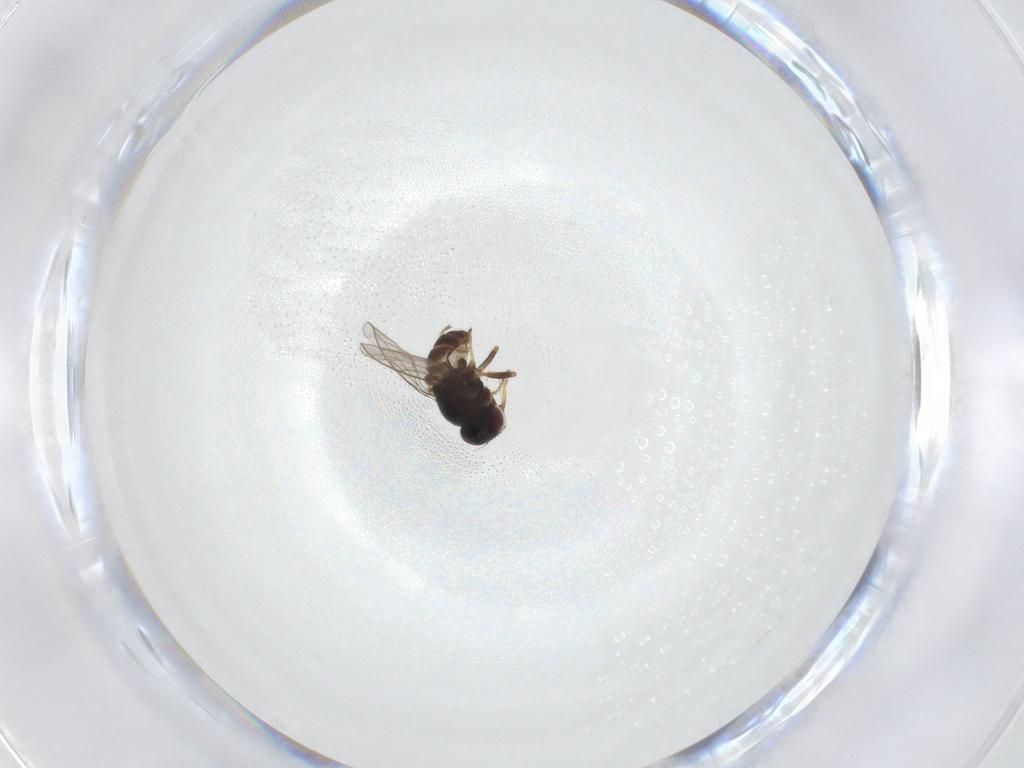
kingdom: Animalia
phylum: Arthropoda
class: Insecta
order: Diptera
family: Chloropidae
